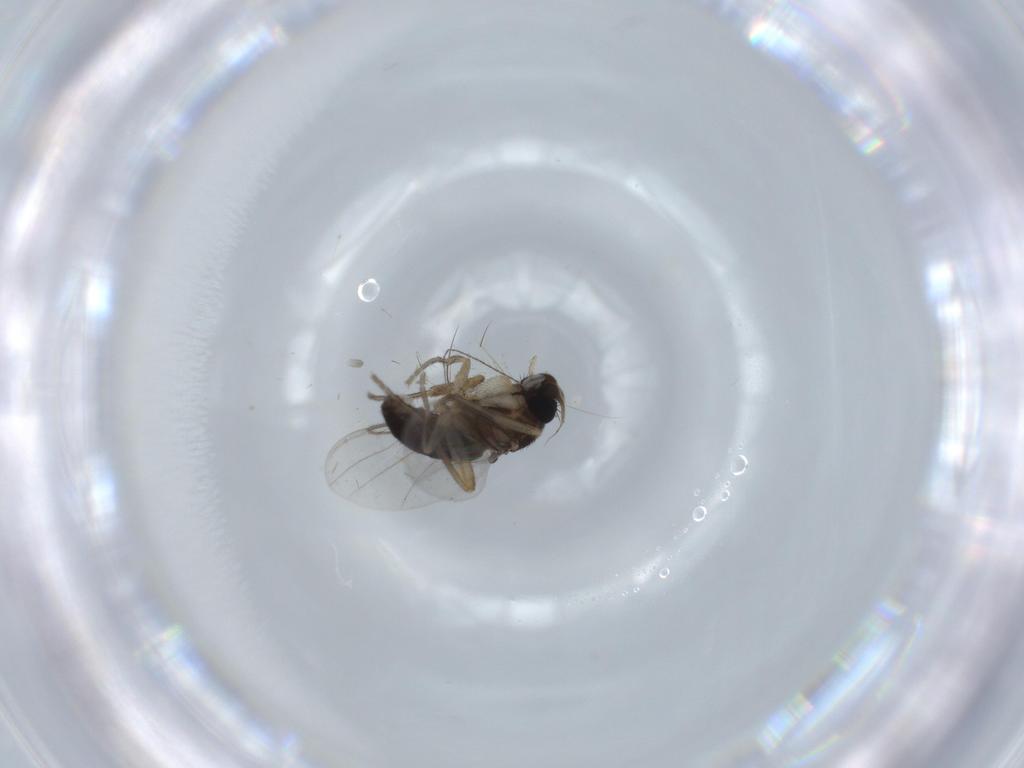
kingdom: Animalia
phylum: Arthropoda
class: Insecta
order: Diptera
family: Phoridae
